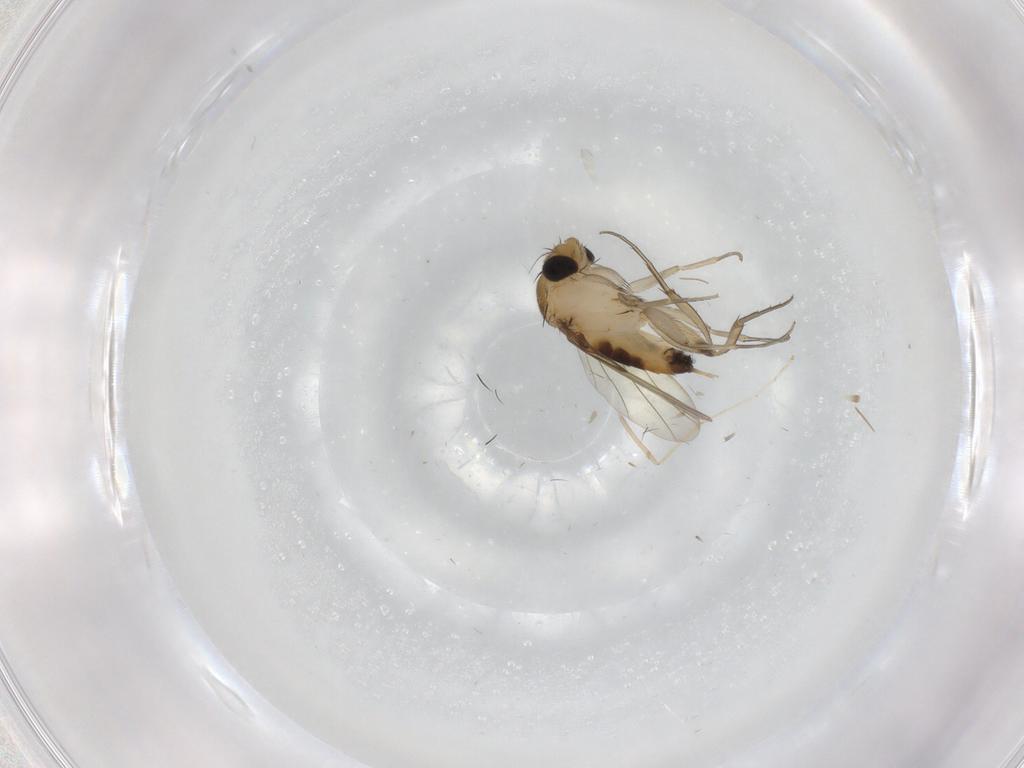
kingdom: Animalia
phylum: Arthropoda
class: Insecta
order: Diptera
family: Phoridae
